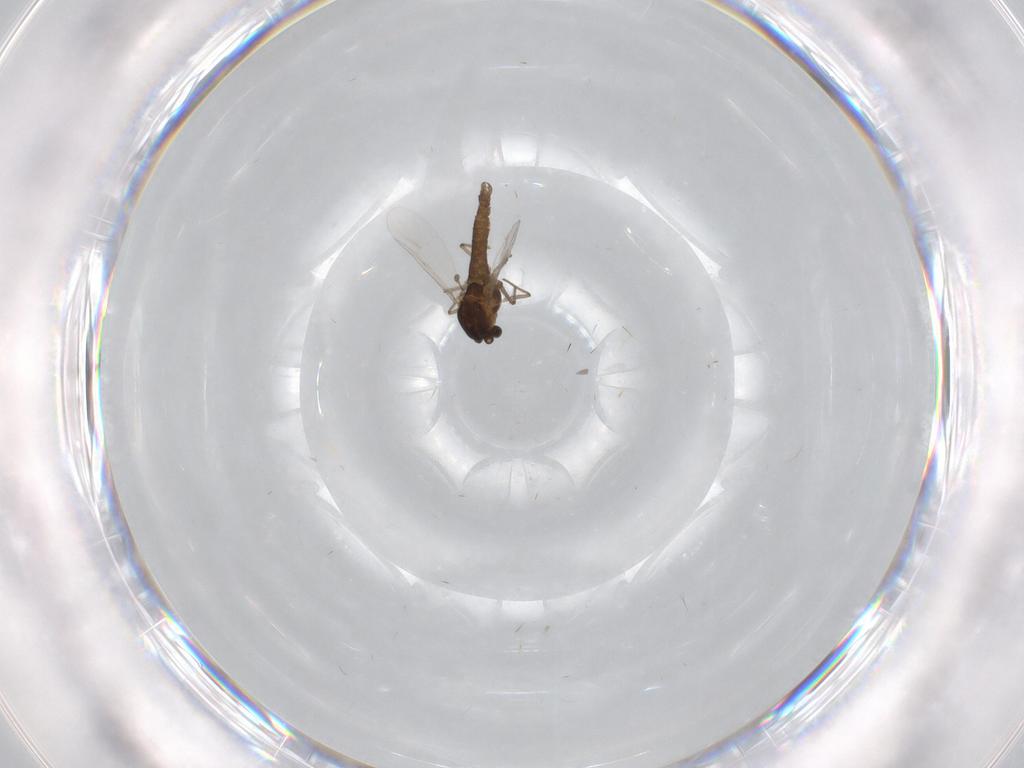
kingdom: Animalia
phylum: Arthropoda
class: Insecta
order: Diptera
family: Chironomidae
